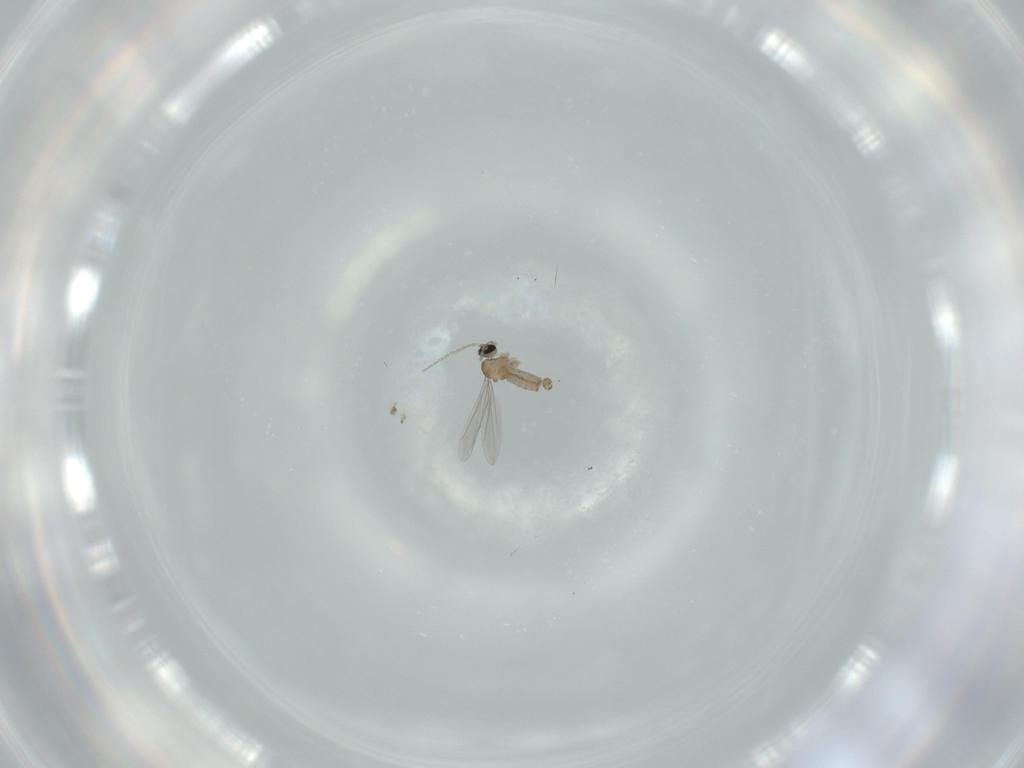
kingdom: Animalia
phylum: Arthropoda
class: Insecta
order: Diptera
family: Cecidomyiidae
